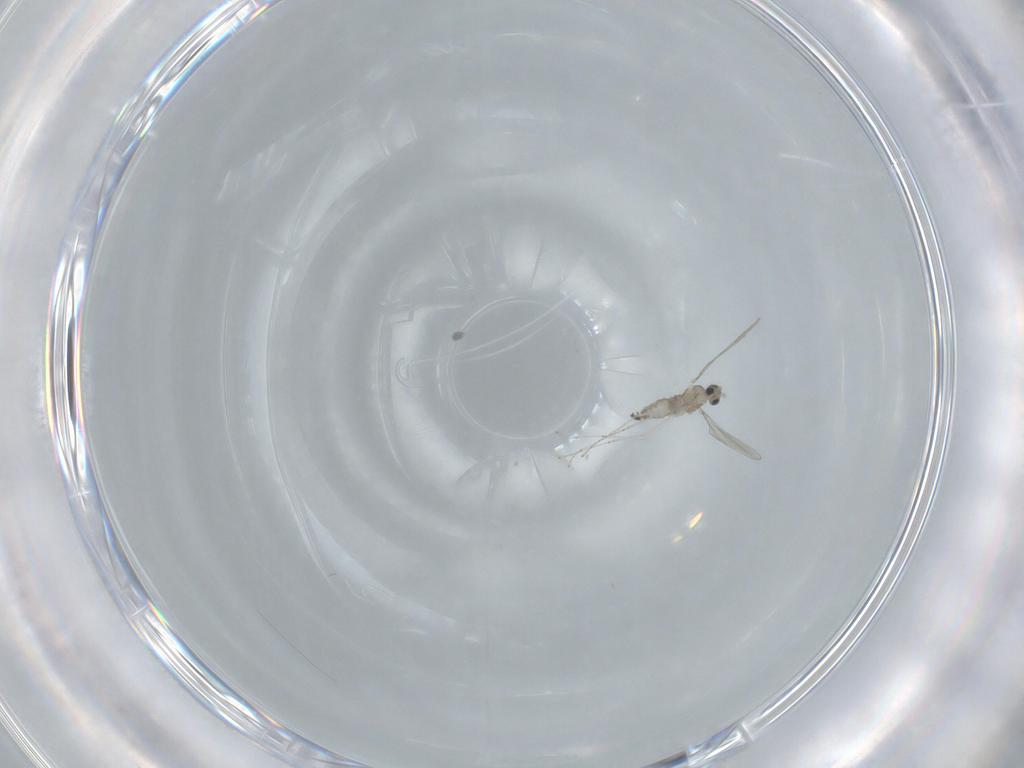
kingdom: Animalia
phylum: Arthropoda
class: Insecta
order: Diptera
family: Cecidomyiidae
